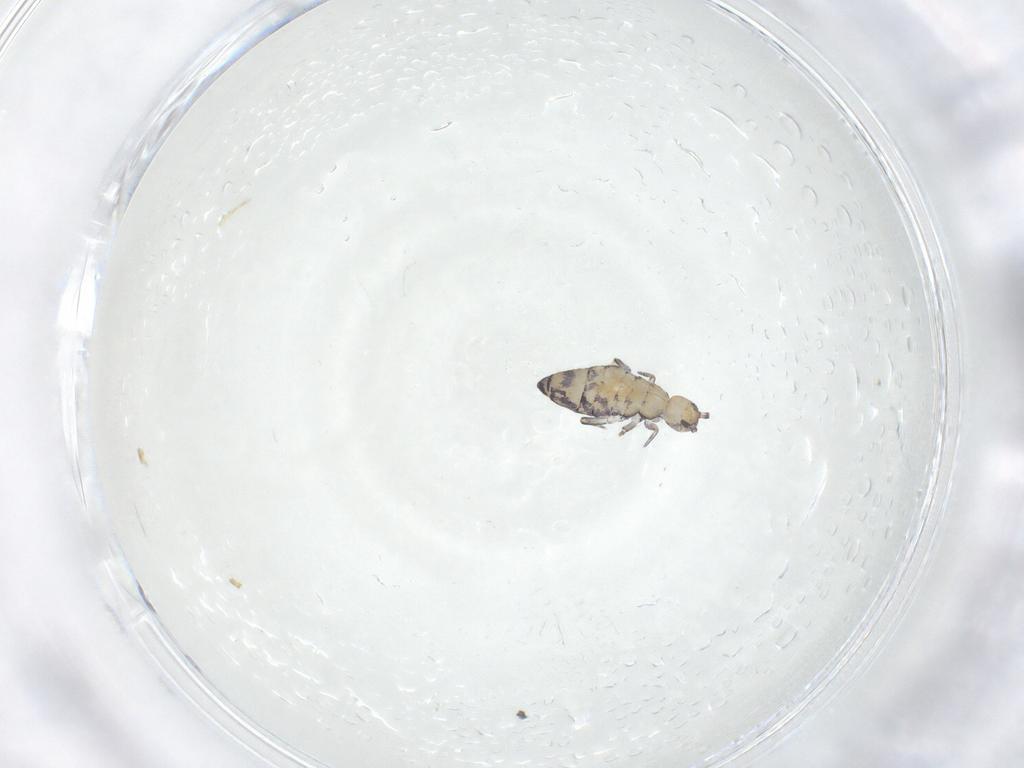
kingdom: Animalia
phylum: Arthropoda
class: Collembola
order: Entomobryomorpha
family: Entomobryidae
